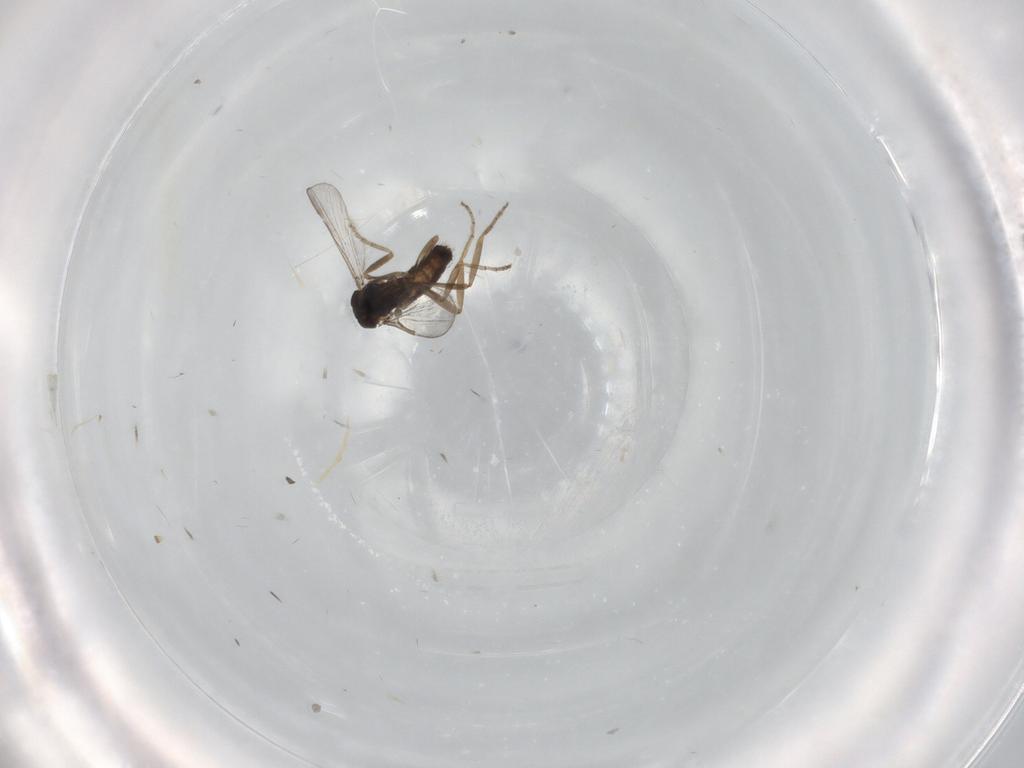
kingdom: Animalia
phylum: Arthropoda
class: Insecta
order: Diptera
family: Ceratopogonidae
